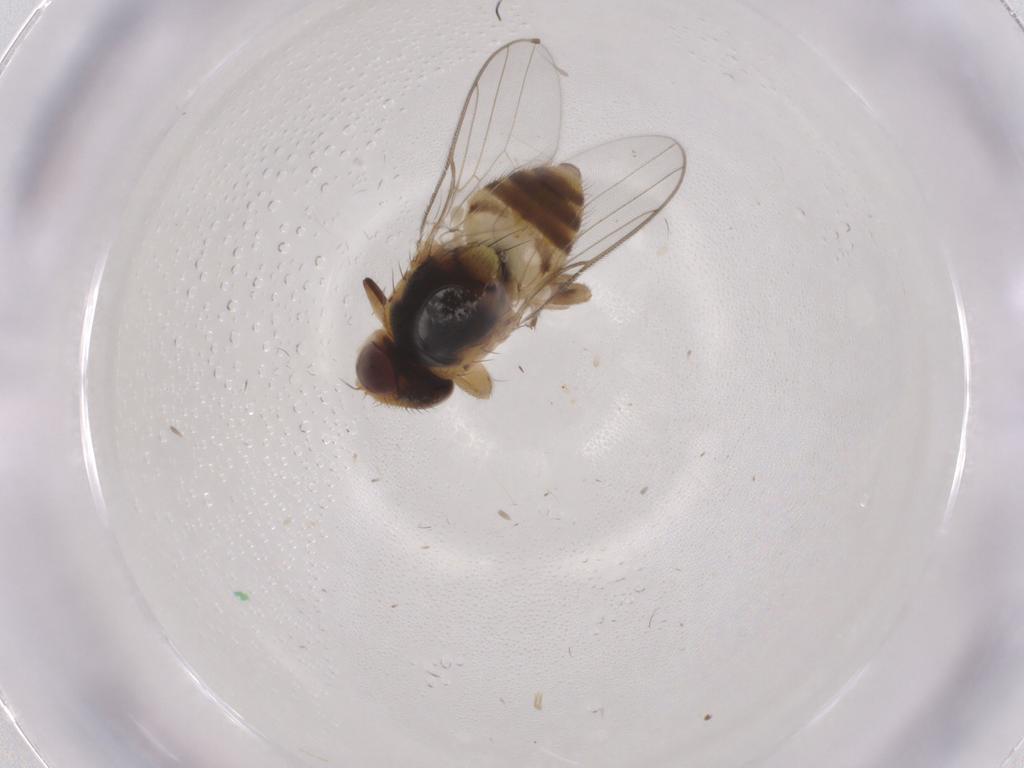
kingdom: Animalia
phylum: Arthropoda
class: Insecta
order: Diptera
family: Chloropidae
